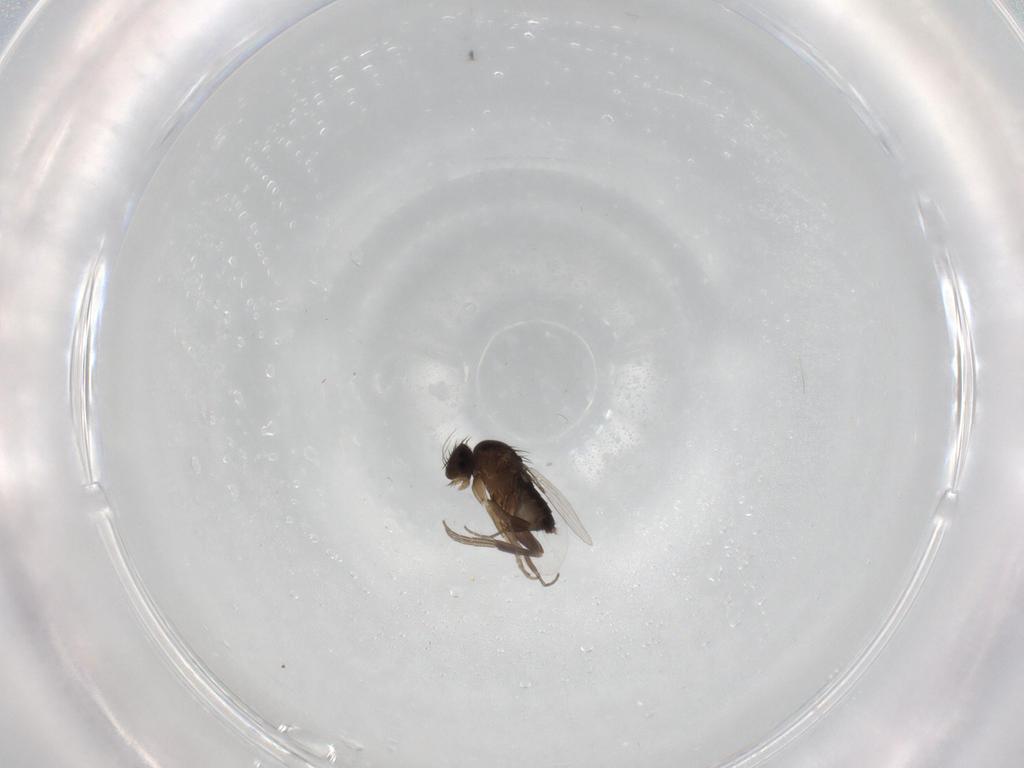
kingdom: Animalia
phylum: Arthropoda
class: Insecta
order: Diptera
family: Phoridae
